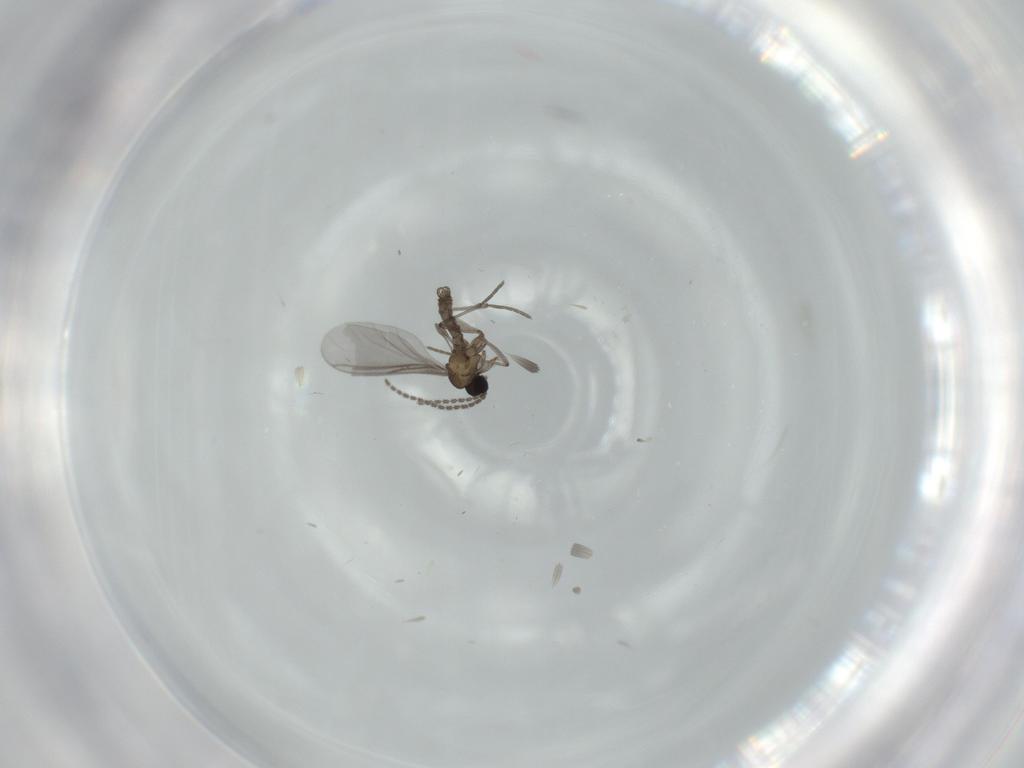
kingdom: Animalia
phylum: Arthropoda
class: Insecta
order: Diptera
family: Sciaridae
